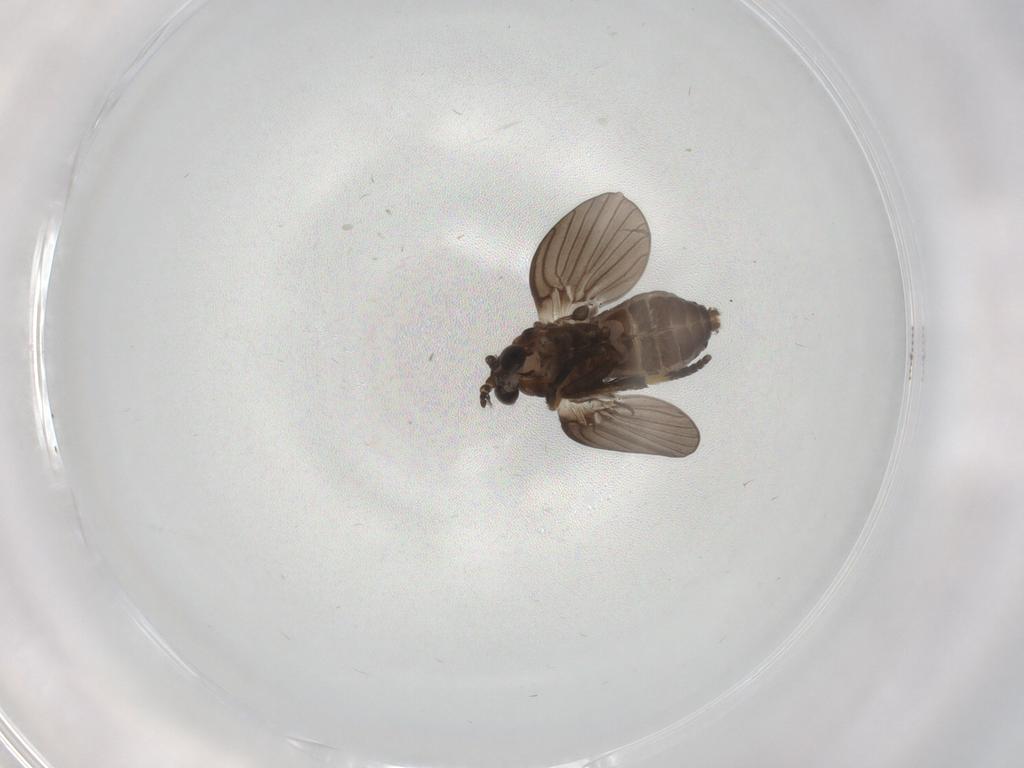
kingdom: Animalia
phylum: Arthropoda
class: Insecta
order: Diptera
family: Psychodidae
